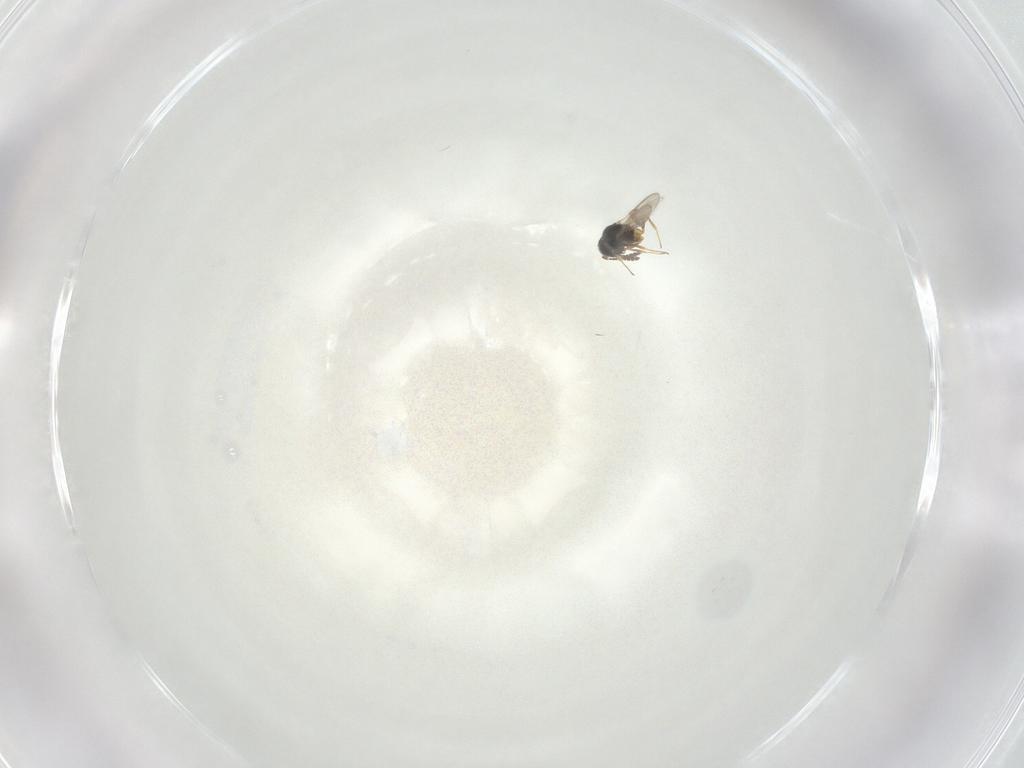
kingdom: Animalia
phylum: Arthropoda
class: Insecta
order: Hymenoptera
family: Scelionidae
